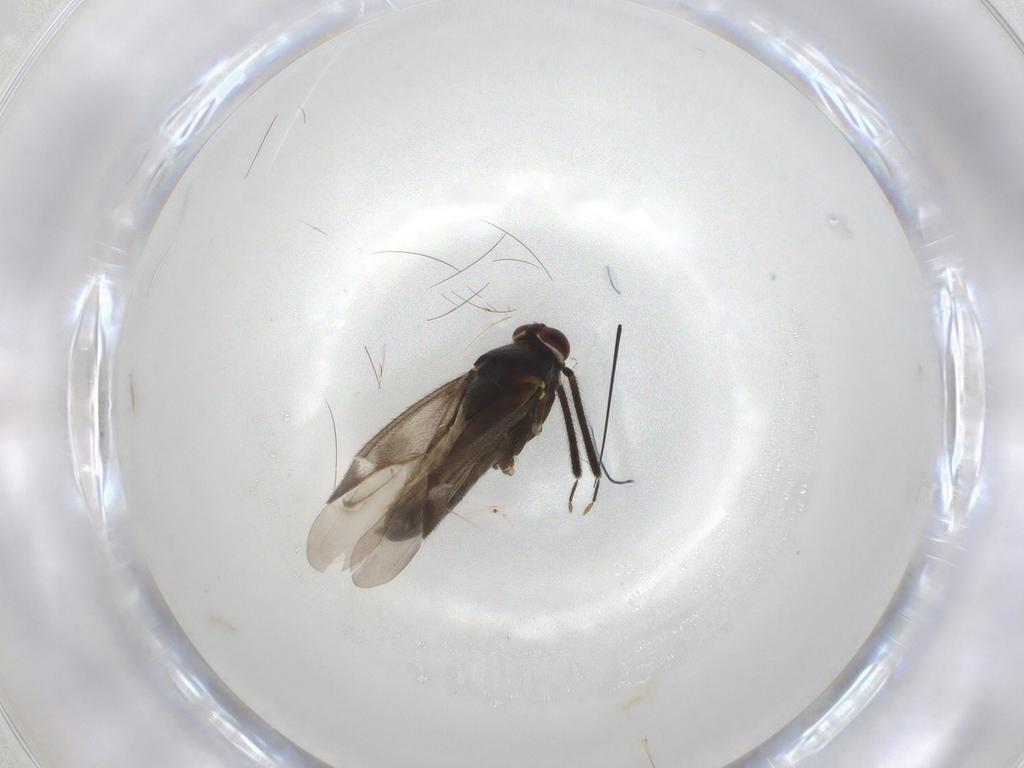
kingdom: Animalia
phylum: Arthropoda
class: Insecta
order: Hemiptera
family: Miridae
